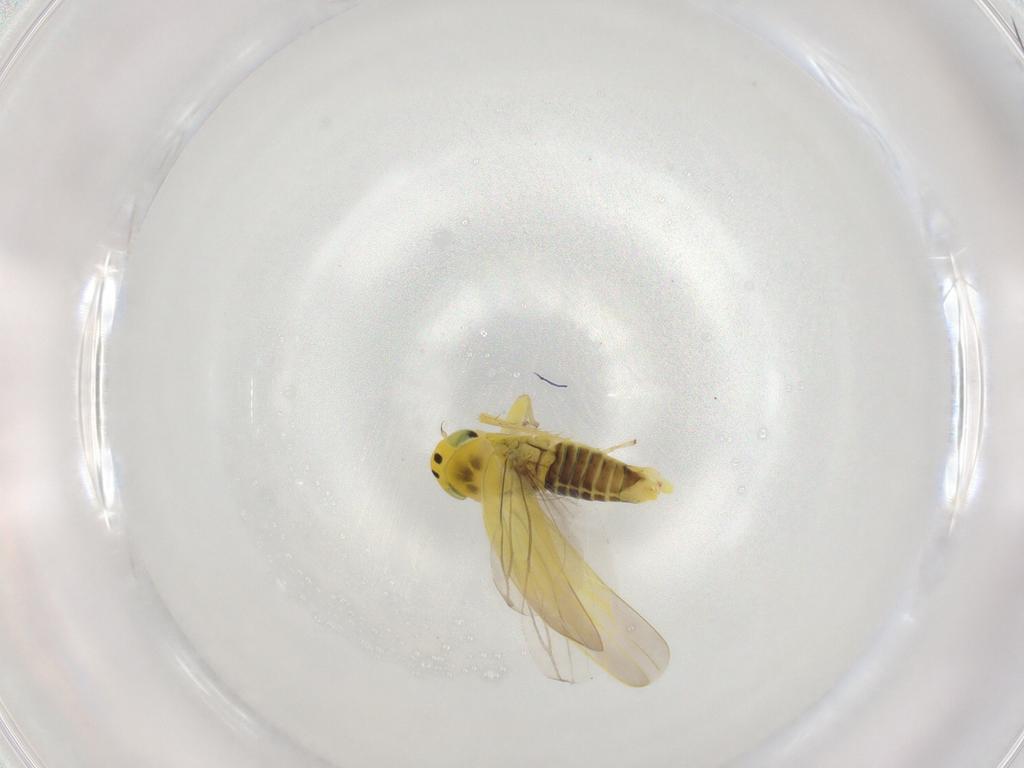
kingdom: Animalia
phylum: Arthropoda
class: Insecta
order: Hemiptera
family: Cicadellidae
